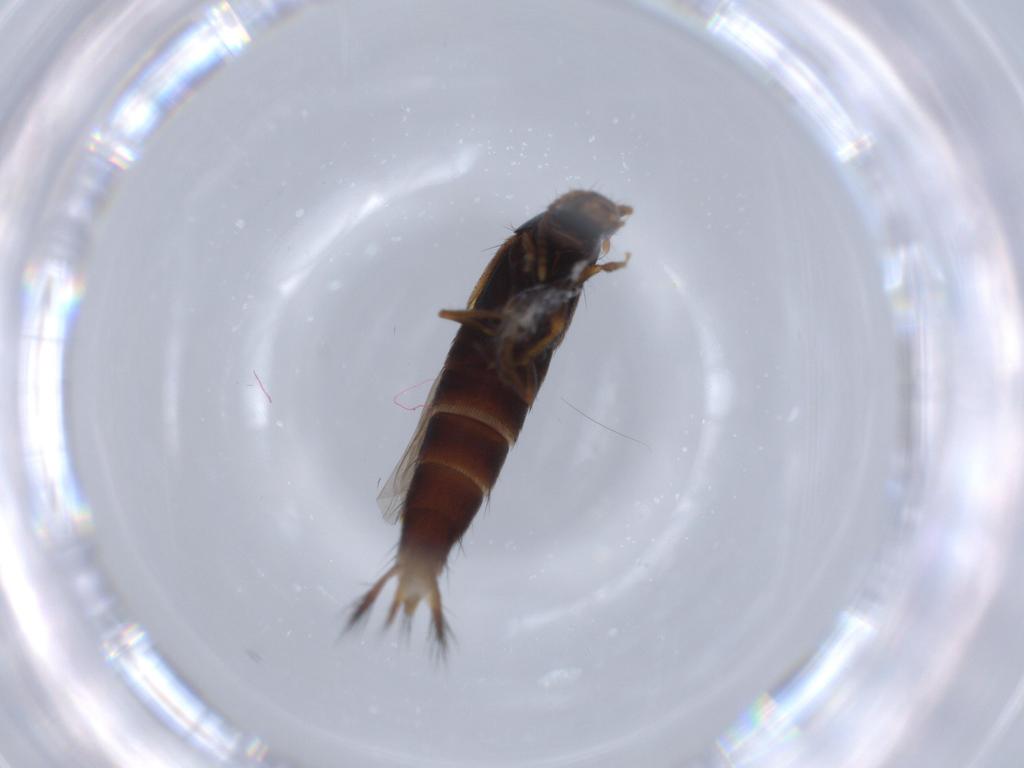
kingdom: Animalia
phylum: Arthropoda
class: Insecta
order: Coleoptera
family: Staphylinidae
